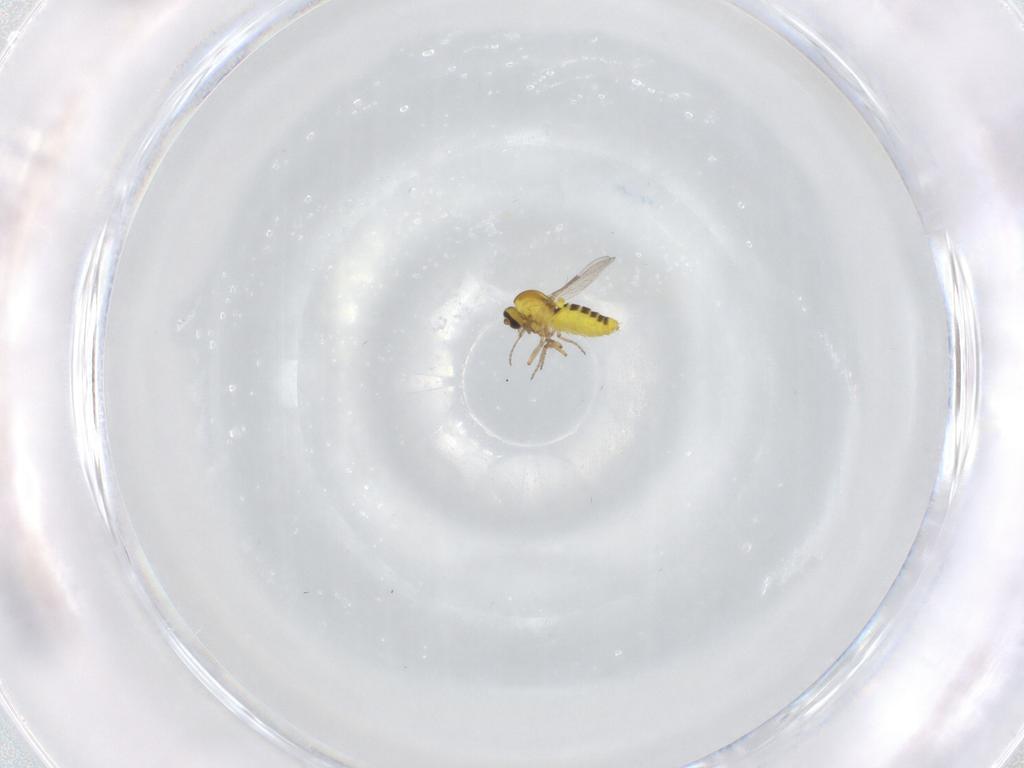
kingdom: Animalia
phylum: Arthropoda
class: Insecta
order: Diptera
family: Ceratopogonidae
